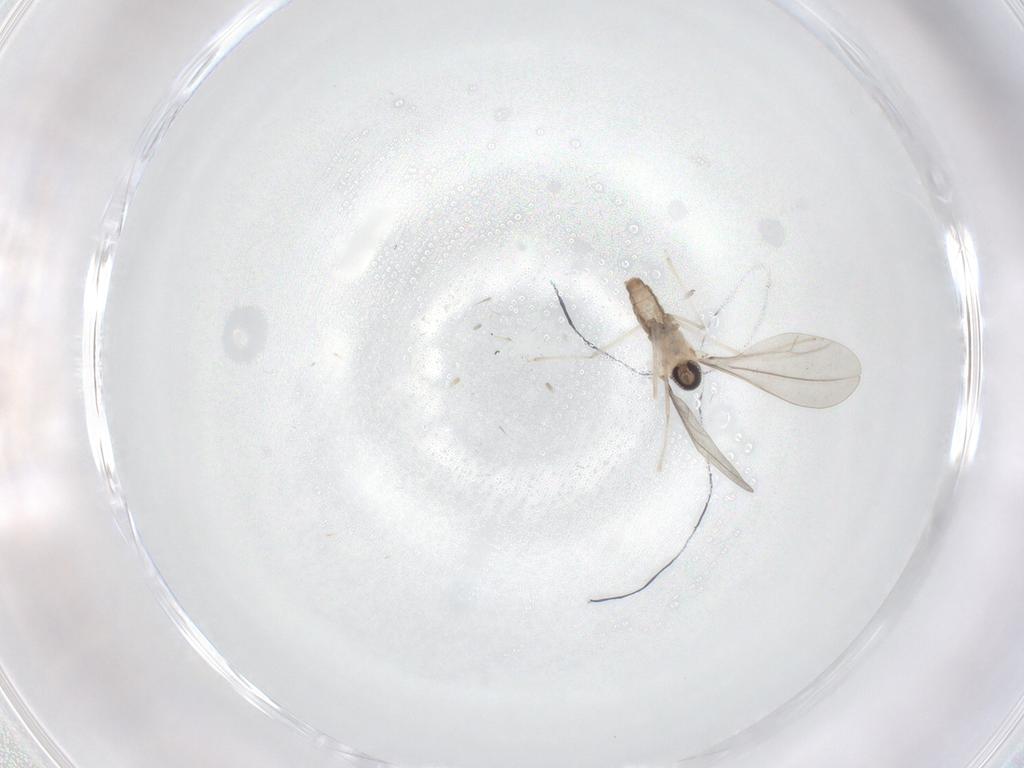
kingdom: Animalia
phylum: Arthropoda
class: Insecta
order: Diptera
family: Cecidomyiidae
